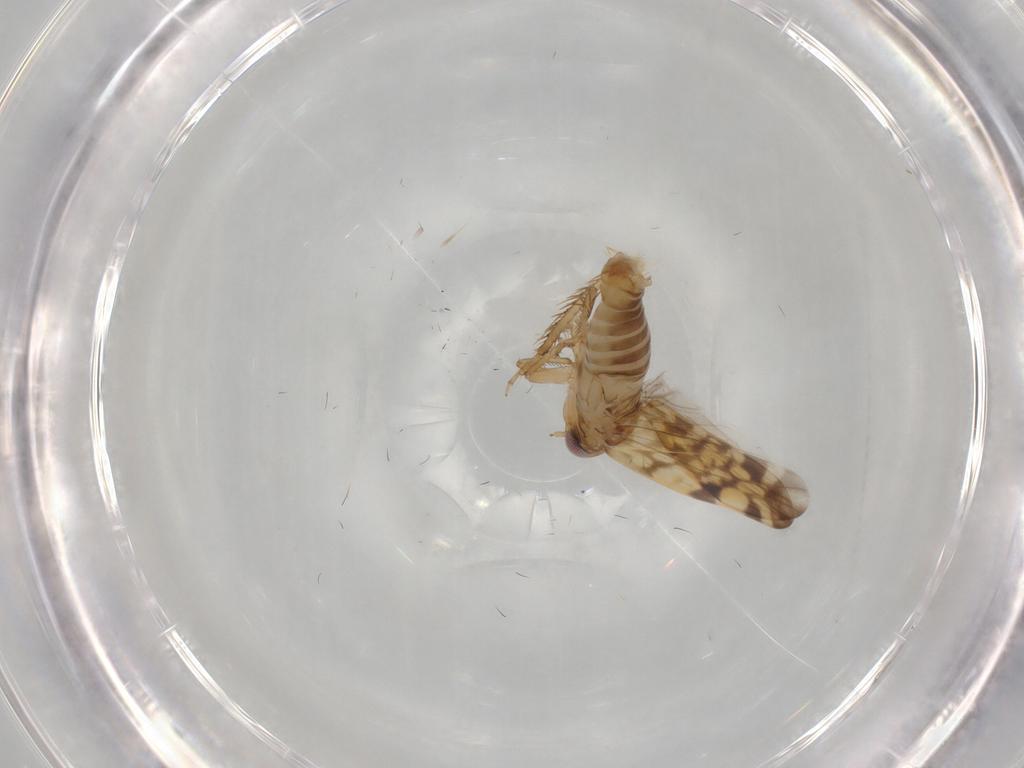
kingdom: Animalia
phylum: Arthropoda
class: Insecta
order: Hemiptera
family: Cicadellidae
